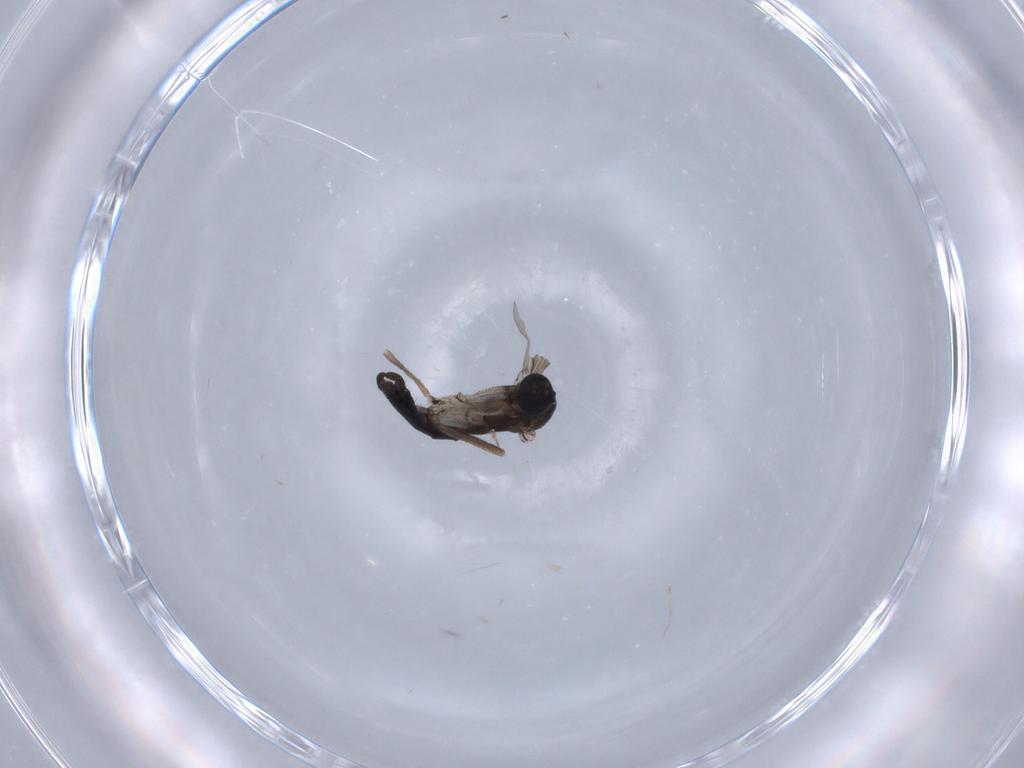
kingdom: Animalia
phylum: Arthropoda
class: Insecta
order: Diptera
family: Sciaridae
